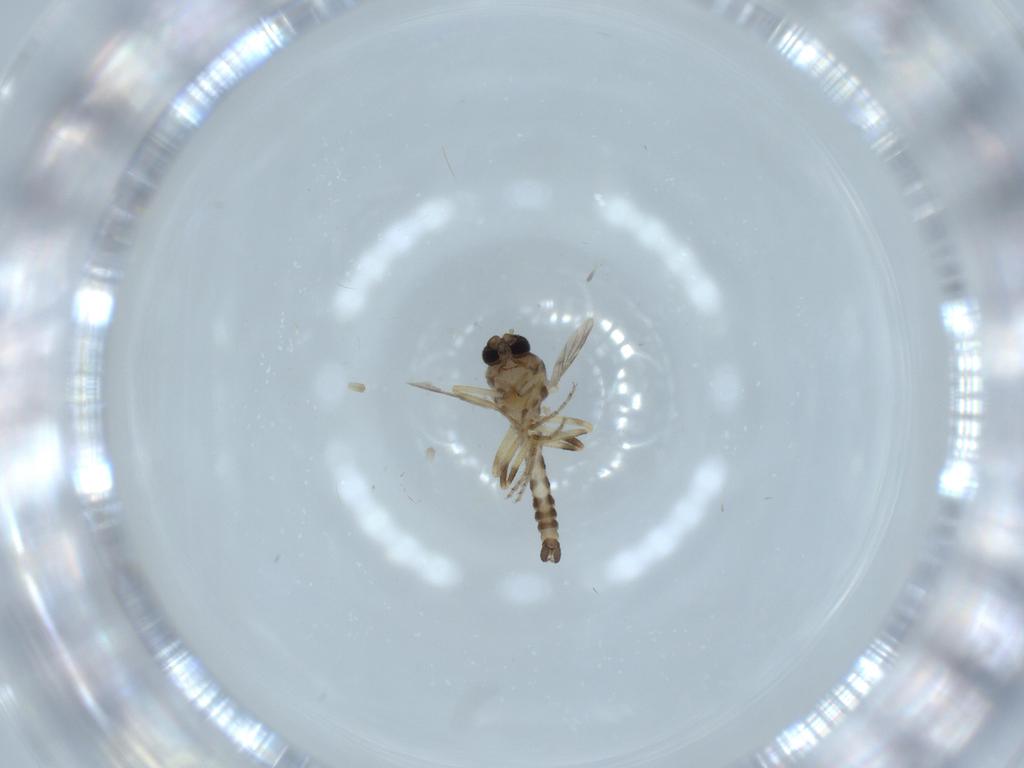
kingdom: Animalia
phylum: Arthropoda
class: Insecta
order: Diptera
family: Ceratopogonidae
